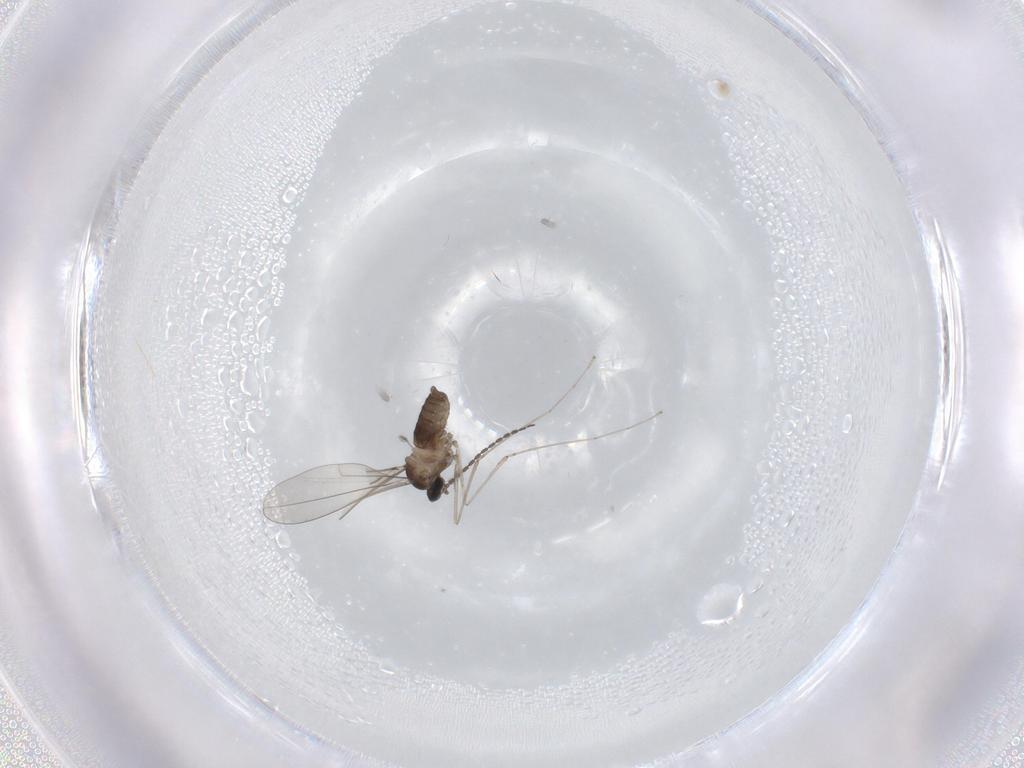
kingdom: Animalia
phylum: Arthropoda
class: Insecta
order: Diptera
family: Cecidomyiidae
